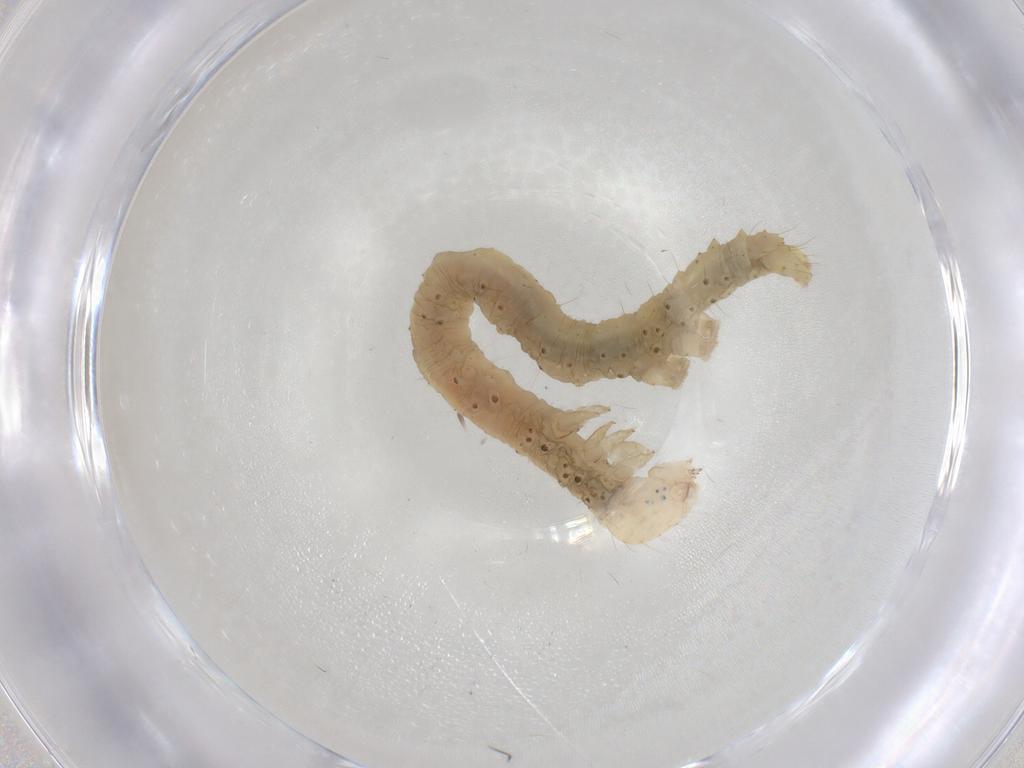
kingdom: Animalia
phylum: Arthropoda
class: Insecta
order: Lepidoptera
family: Erebidae
